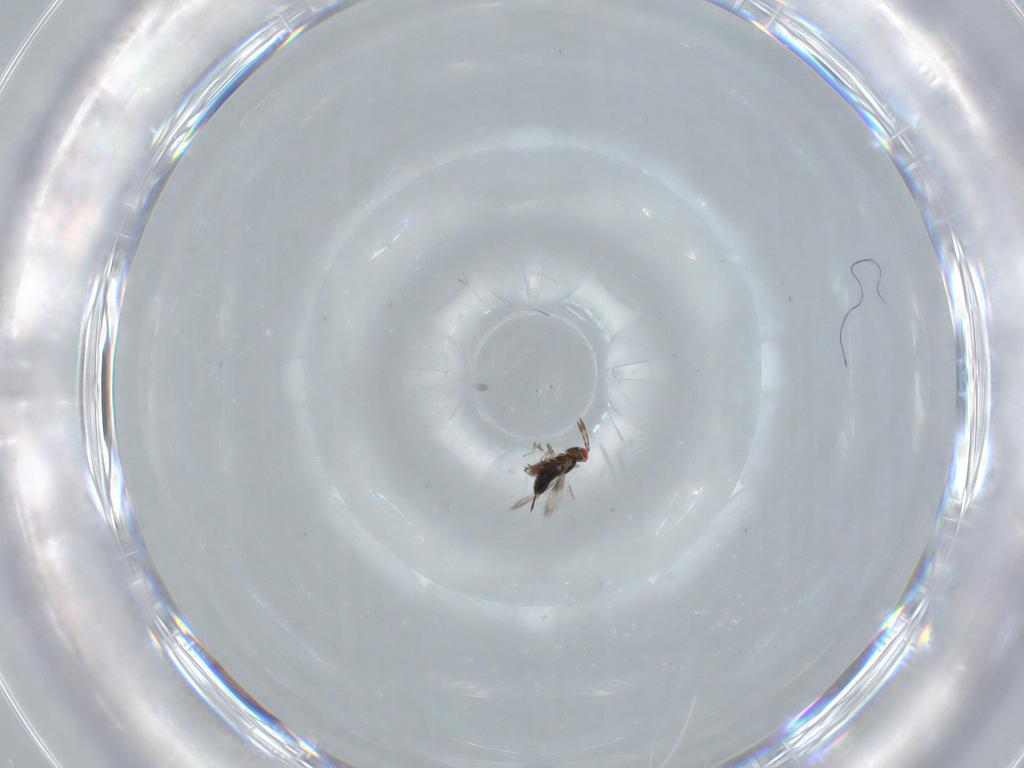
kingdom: Animalia
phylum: Arthropoda
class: Insecta
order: Hymenoptera
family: Azotidae
